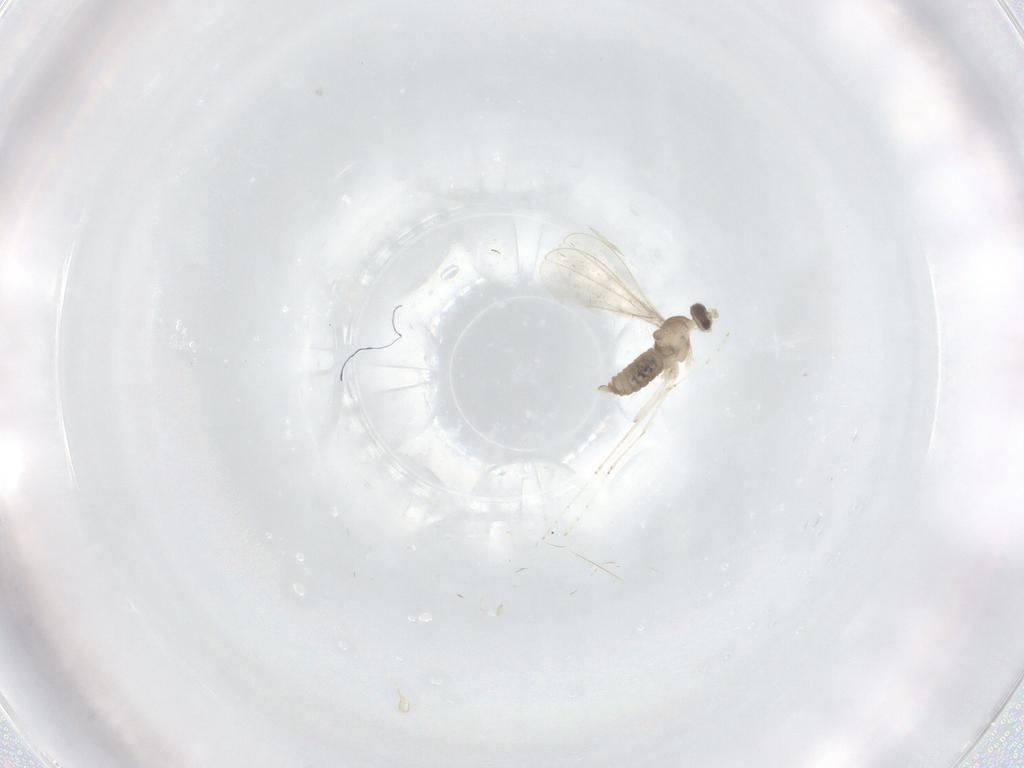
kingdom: Animalia
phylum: Arthropoda
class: Insecta
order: Diptera
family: Cecidomyiidae
